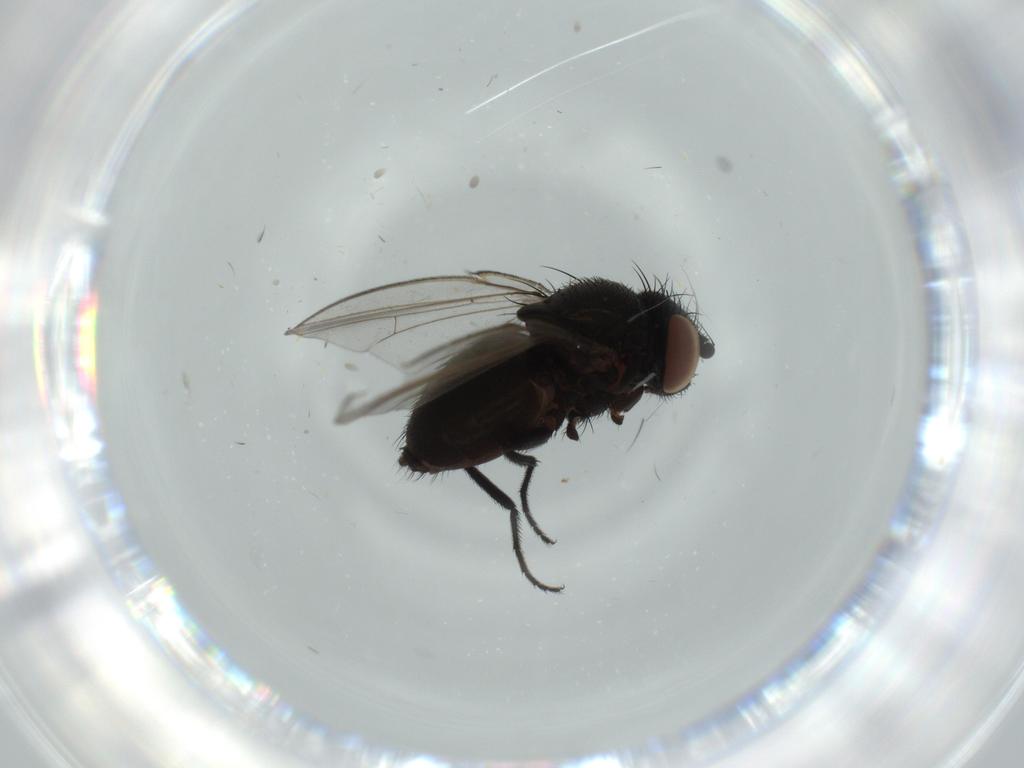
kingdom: Animalia
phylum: Arthropoda
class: Insecta
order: Diptera
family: Milichiidae
